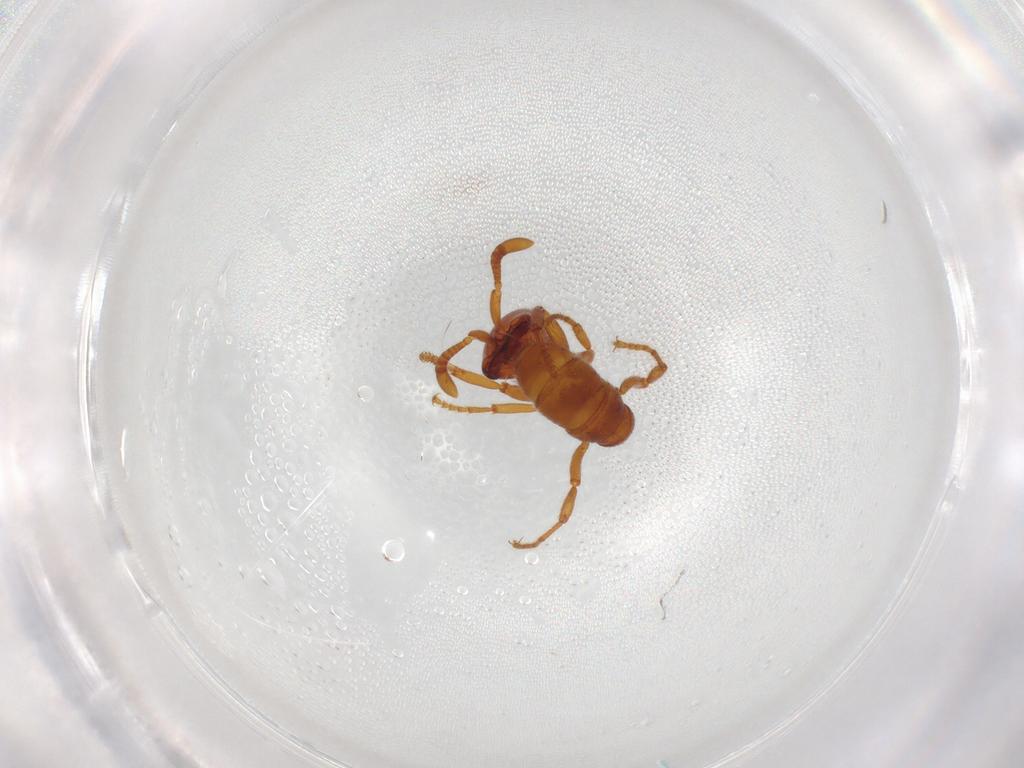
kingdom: Animalia
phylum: Arthropoda
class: Insecta
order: Hymenoptera
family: Formicidae
